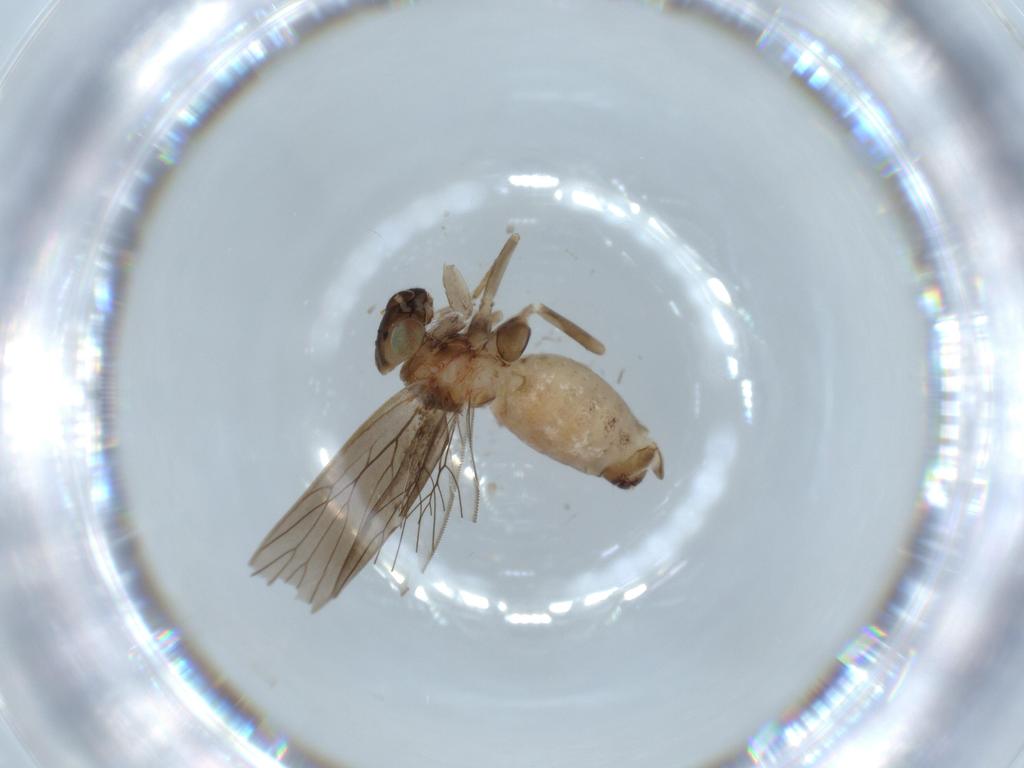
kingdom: Animalia
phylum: Arthropoda
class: Insecta
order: Psocodea
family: Lepidopsocidae
